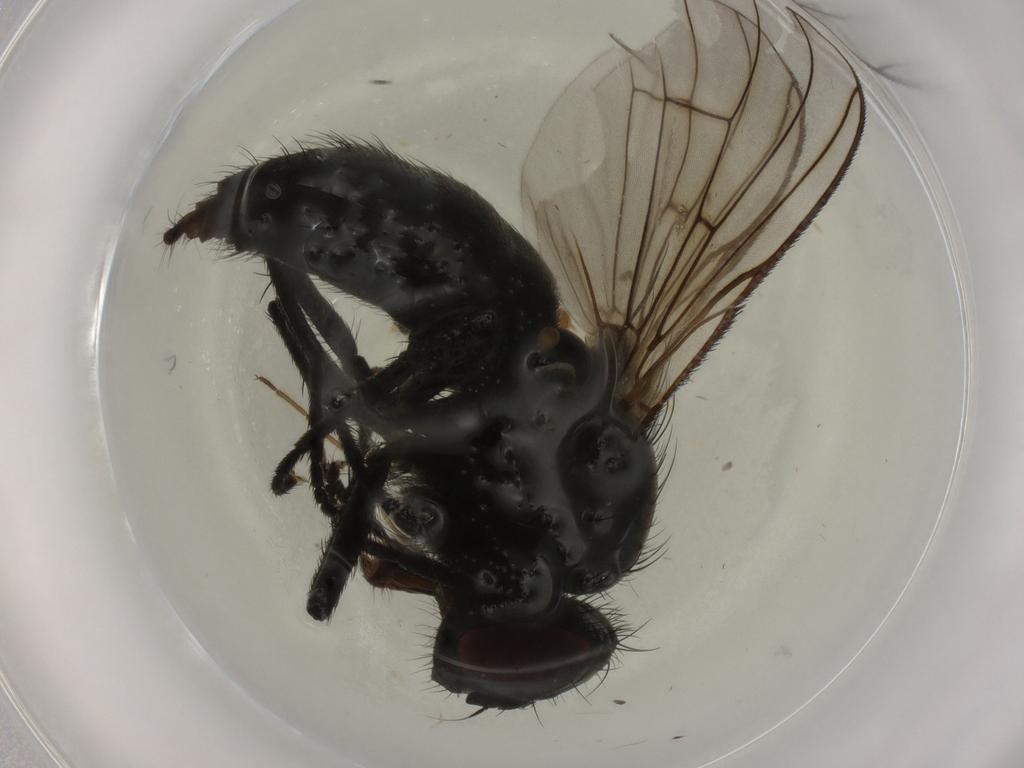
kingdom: Animalia
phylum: Arthropoda
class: Insecta
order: Diptera
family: Muscidae
